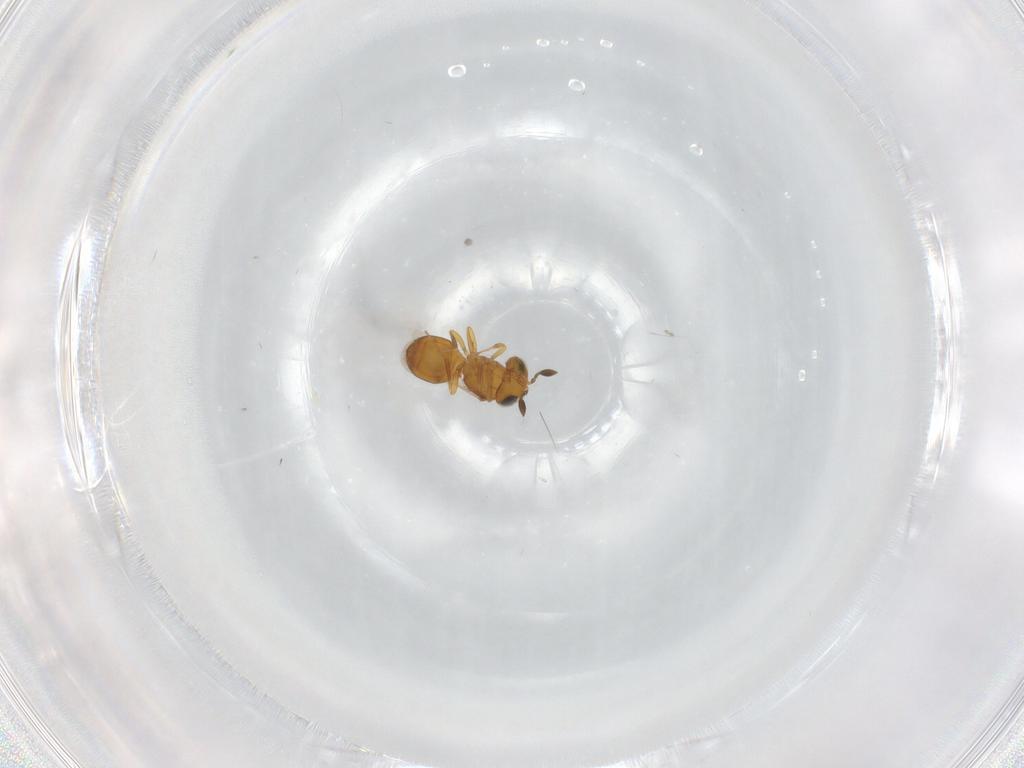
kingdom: Animalia
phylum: Arthropoda
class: Insecta
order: Hymenoptera
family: Scelionidae
